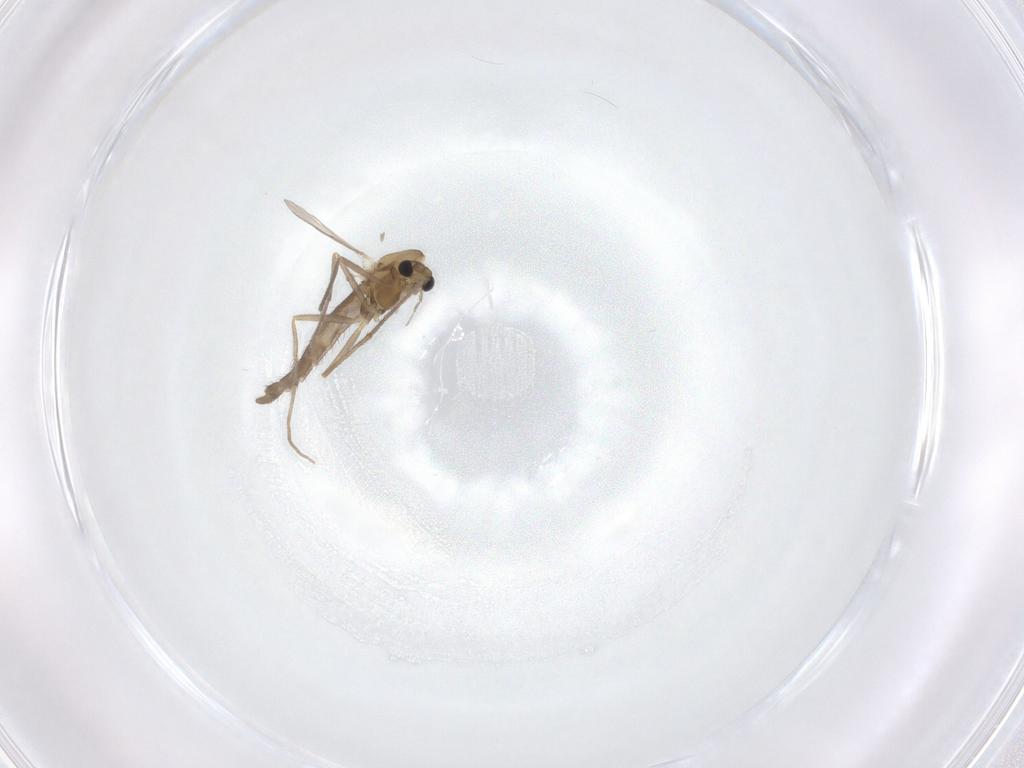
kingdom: Animalia
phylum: Arthropoda
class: Insecta
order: Diptera
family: Chironomidae
